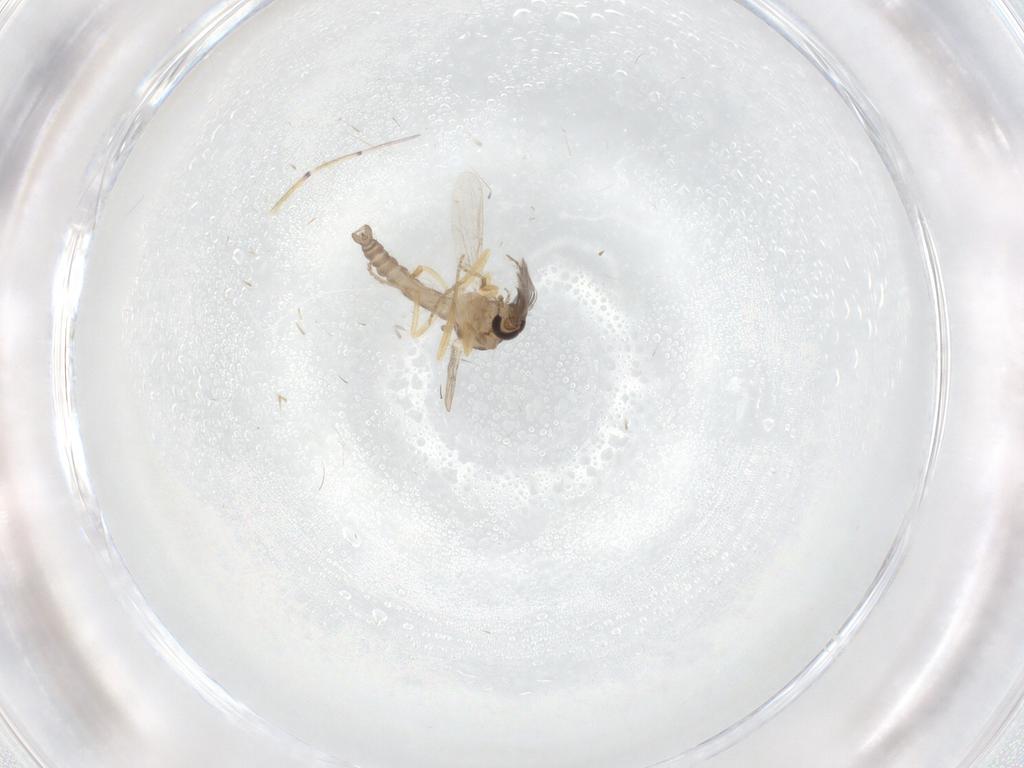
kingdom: Animalia
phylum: Arthropoda
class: Insecta
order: Diptera
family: Ceratopogonidae
